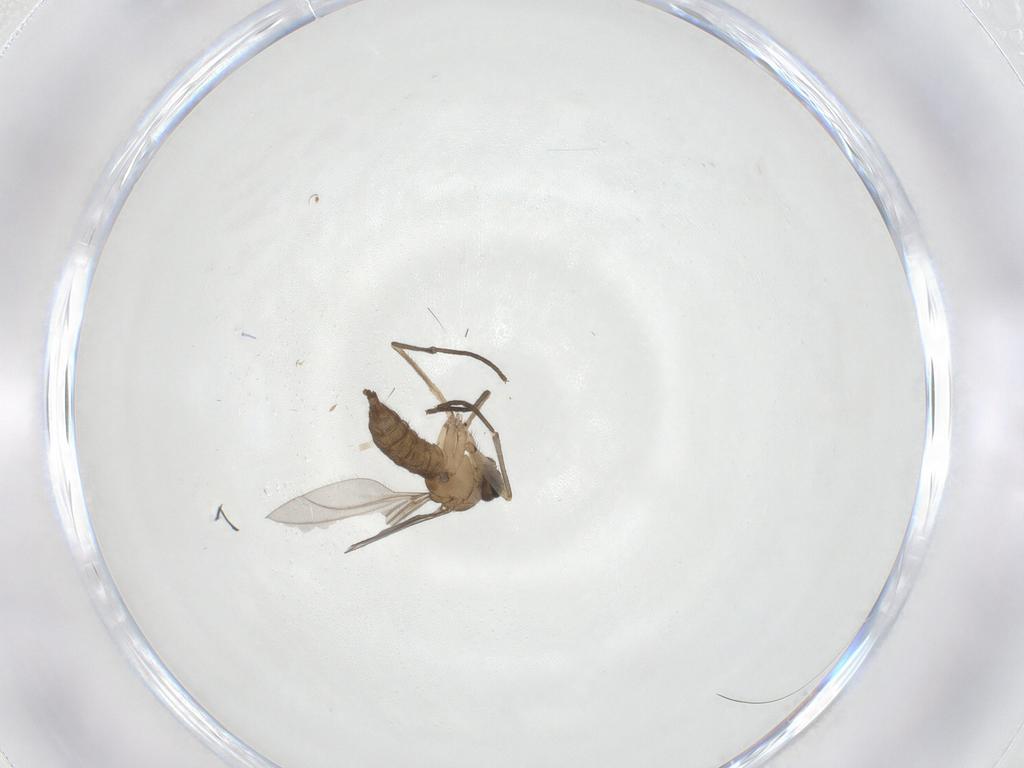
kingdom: Animalia
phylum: Arthropoda
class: Insecta
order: Diptera
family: Sciaridae
